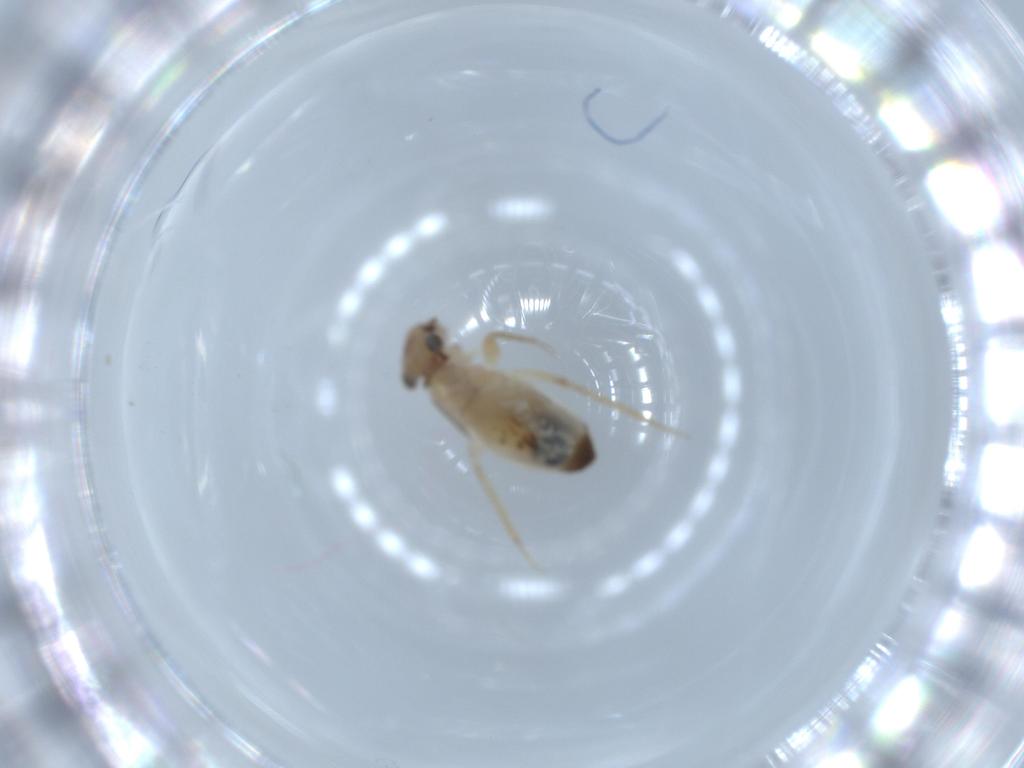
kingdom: Animalia
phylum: Arthropoda
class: Insecta
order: Psocodea
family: Lepidopsocidae
